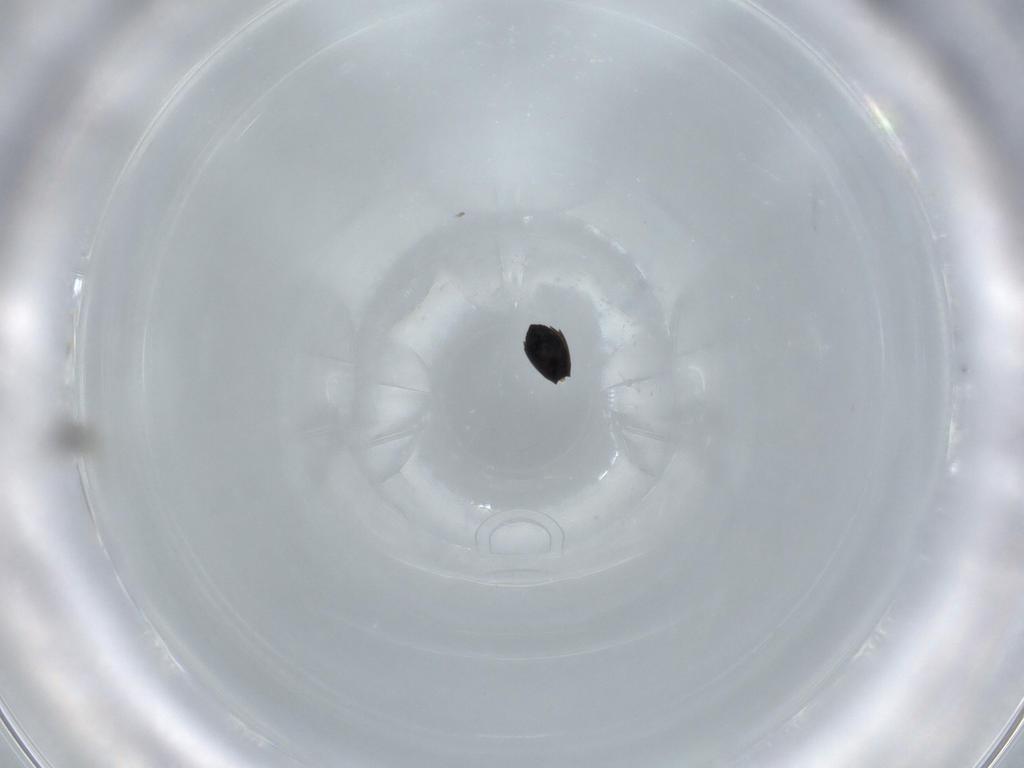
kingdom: Animalia
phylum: Arthropoda
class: Insecta
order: Hymenoptera
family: Scelionidae
